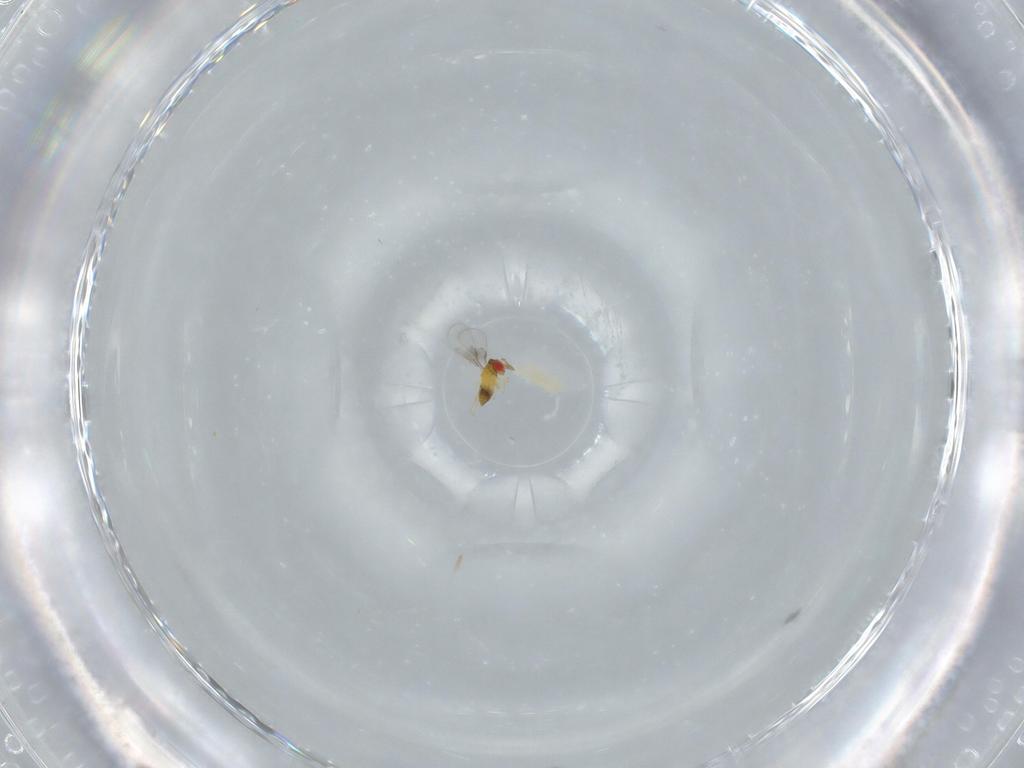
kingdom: Animalia
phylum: Arthropoda
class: Insecta
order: Hymenoptera
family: Trichogrammatidae
